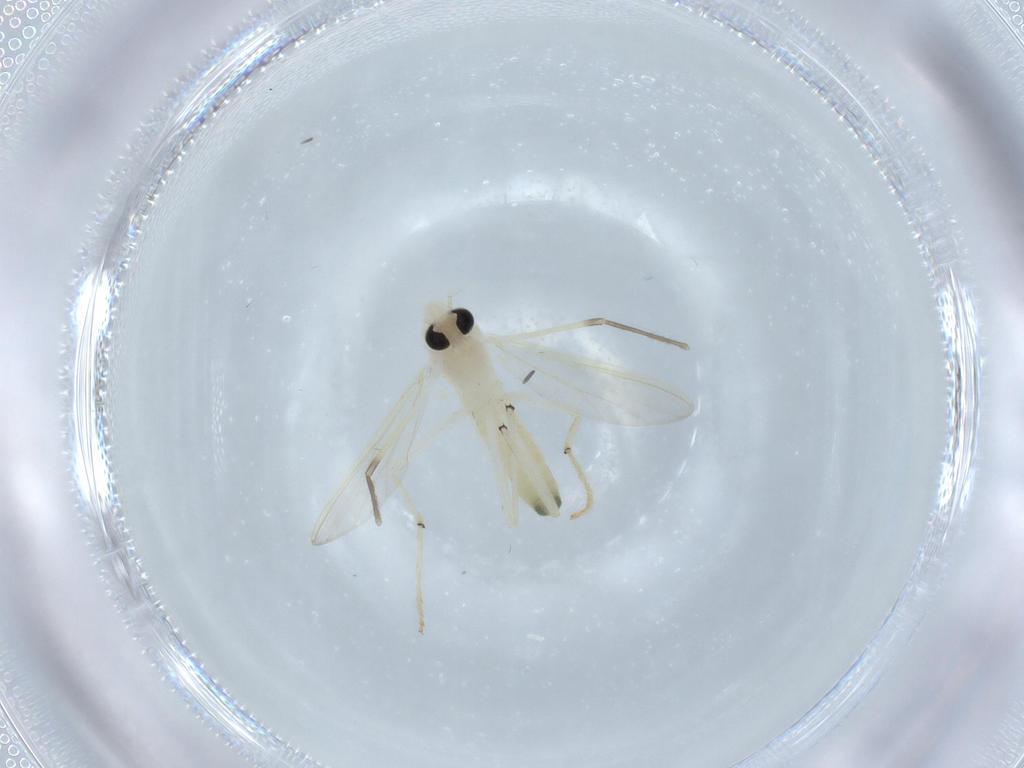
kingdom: Animalia
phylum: Arthropoda
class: Insecta
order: Diptera
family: Chironomidae
